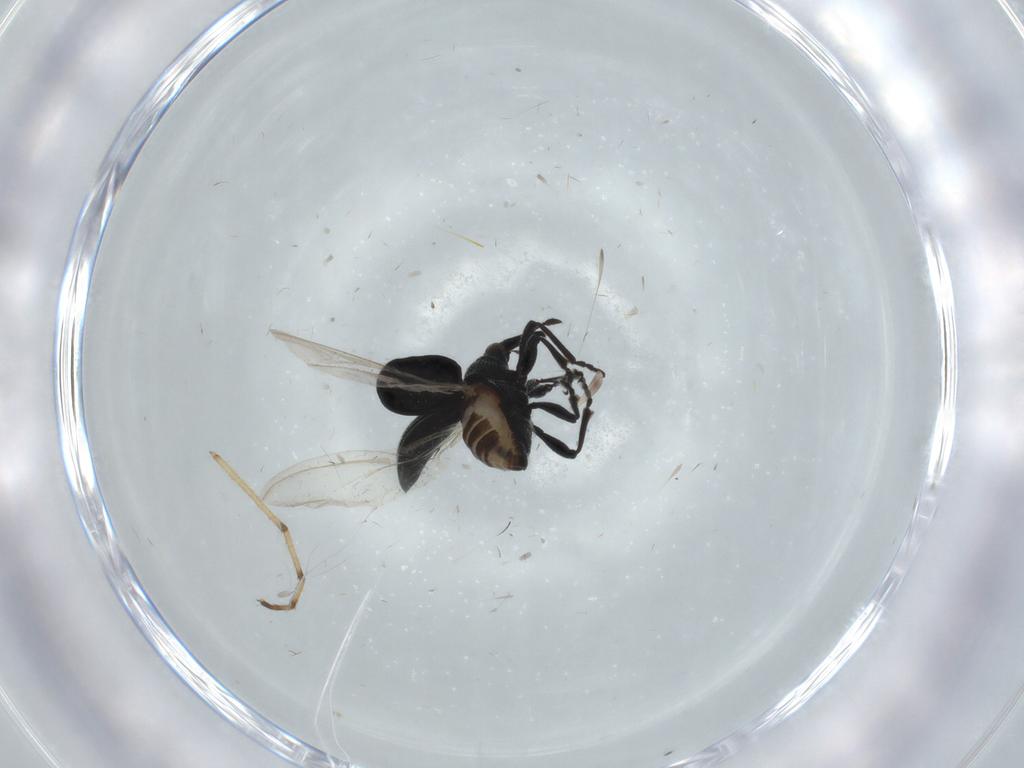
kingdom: Animalia
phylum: Arthropoda
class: Insecta
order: Coleoptera
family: Brentidae
